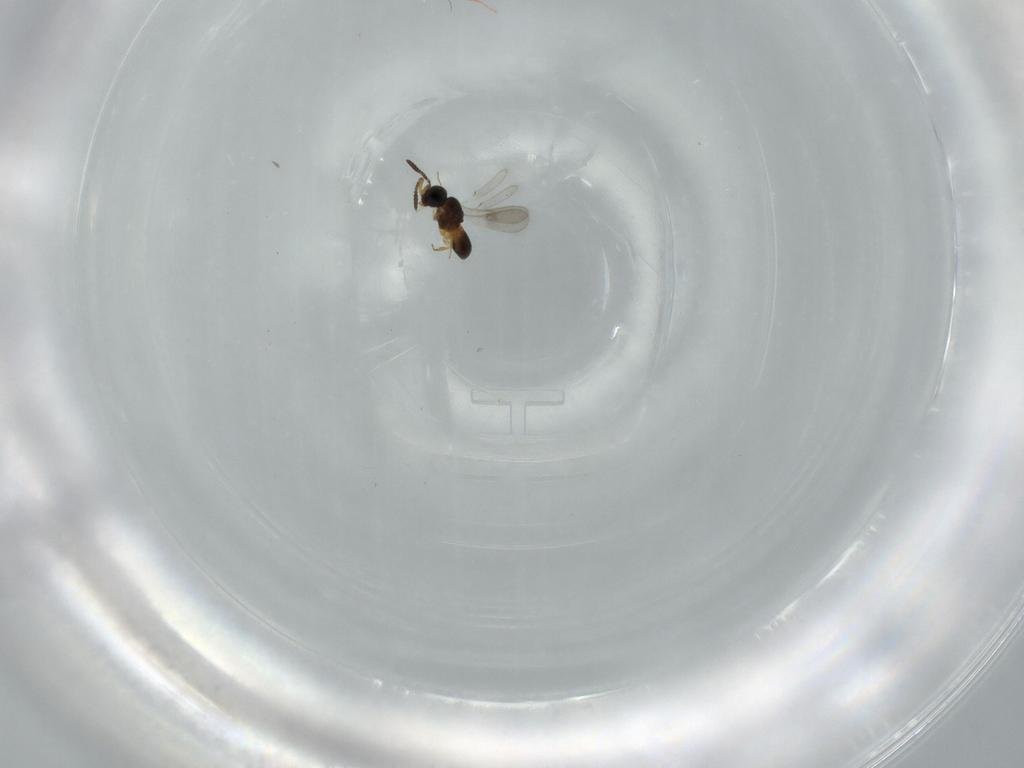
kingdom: Animalia
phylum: Arthropoda
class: Insecta
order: Hymenoptera
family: Scelionidae
